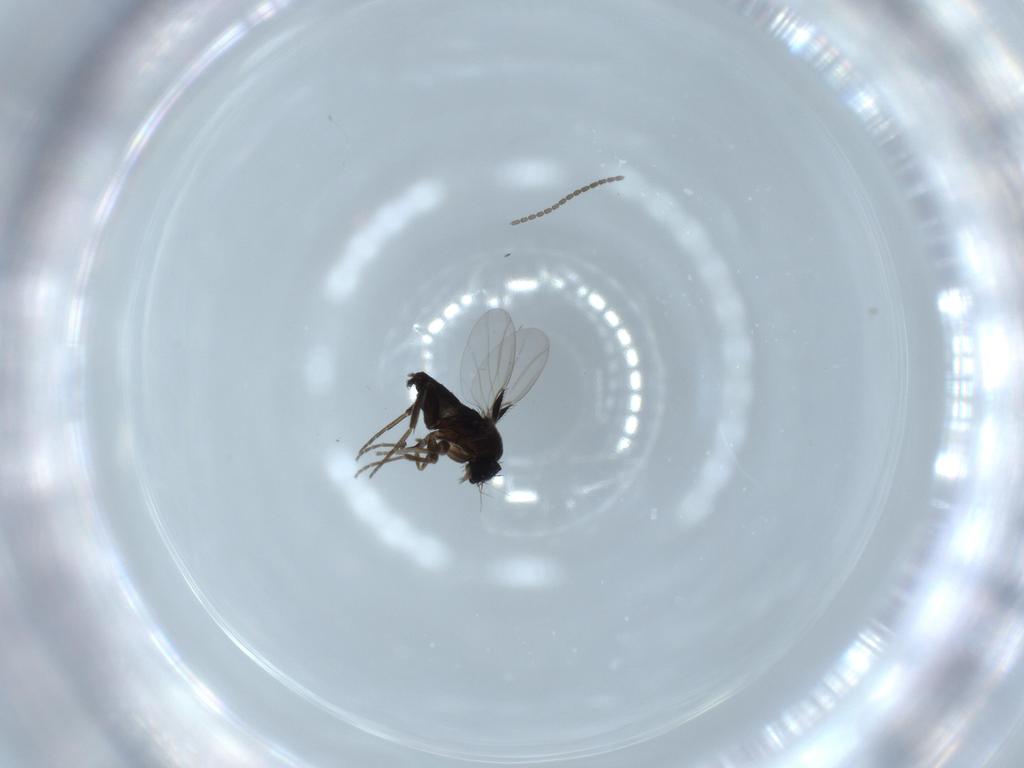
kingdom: Animalia
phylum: Arthropoda
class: Insecta
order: Diptera
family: Phoridae
